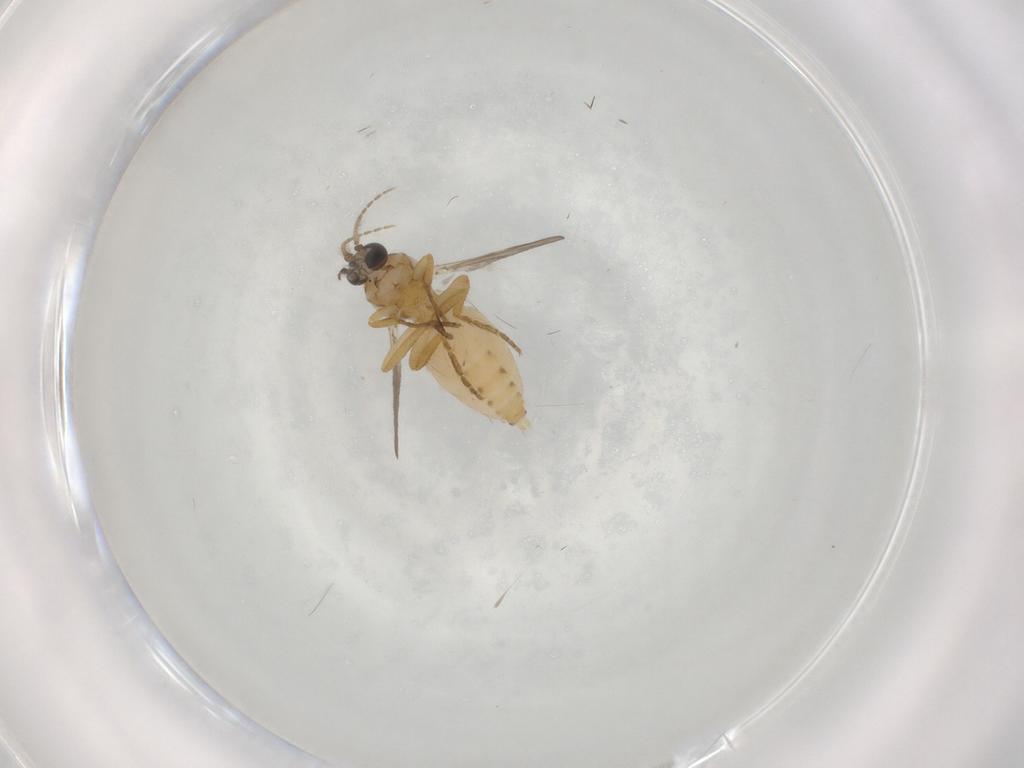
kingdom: Animalia
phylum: Arthropoda
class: Insecta
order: Diptera
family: Ceratopogonidae
